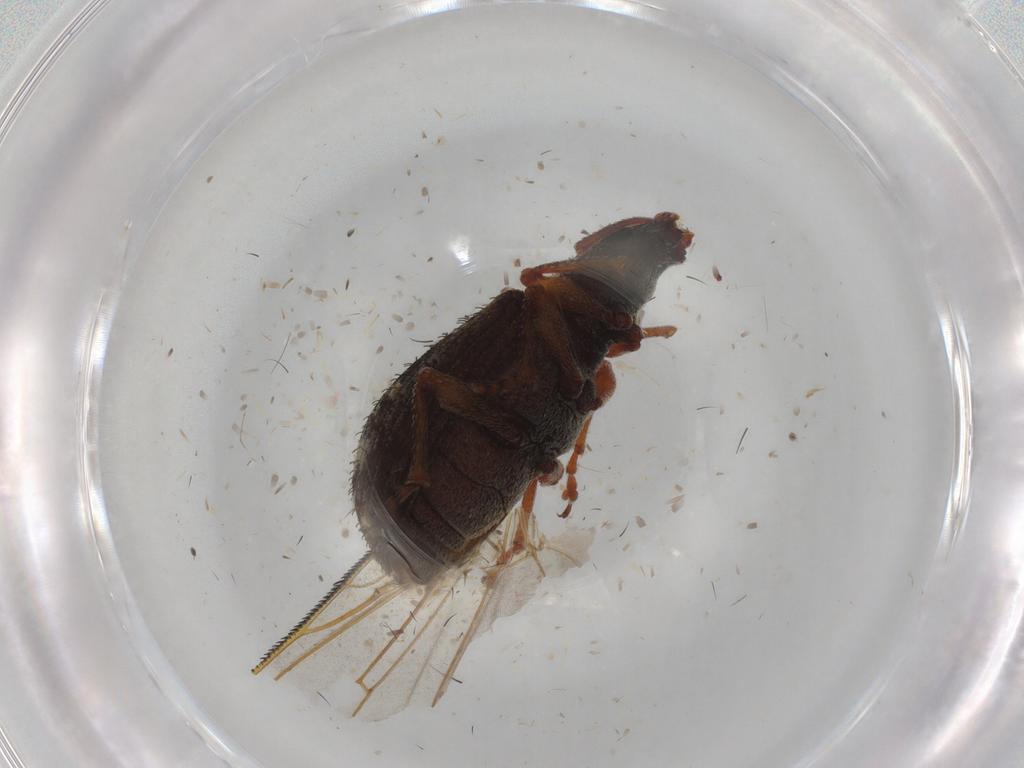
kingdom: Animalia
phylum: Arthropoda
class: Insecta
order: Coleoptera
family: Curculionidae
